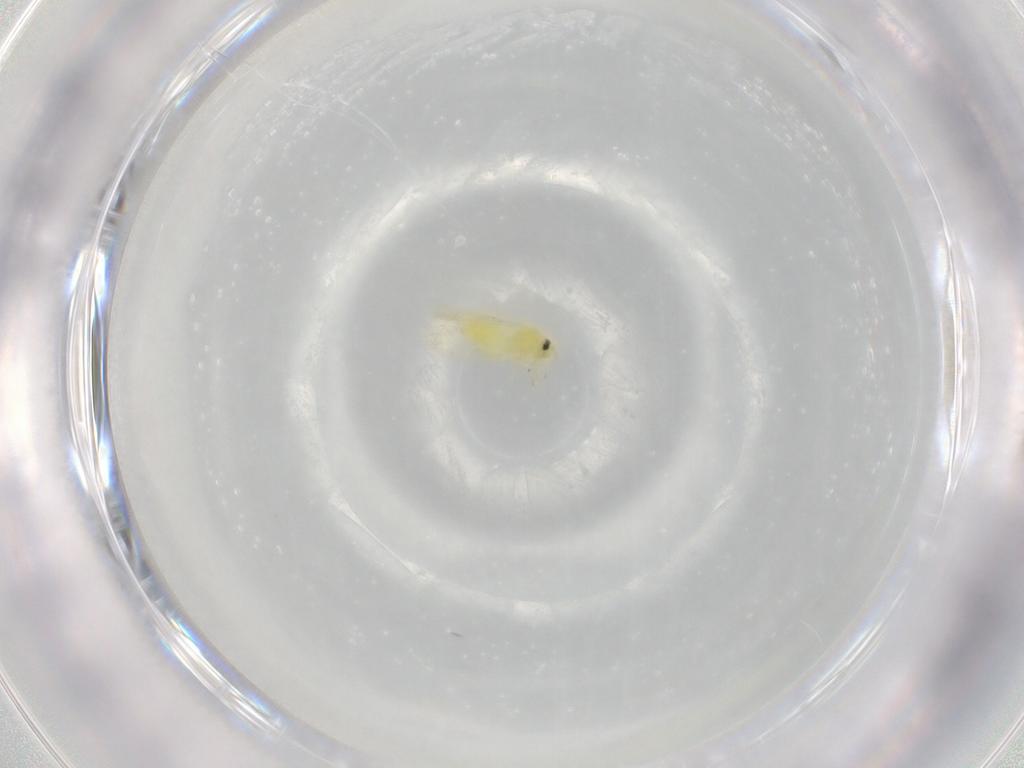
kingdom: Animalia
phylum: Arthropoda
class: Insecta
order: Hemiptera
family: Aleyrodidae
